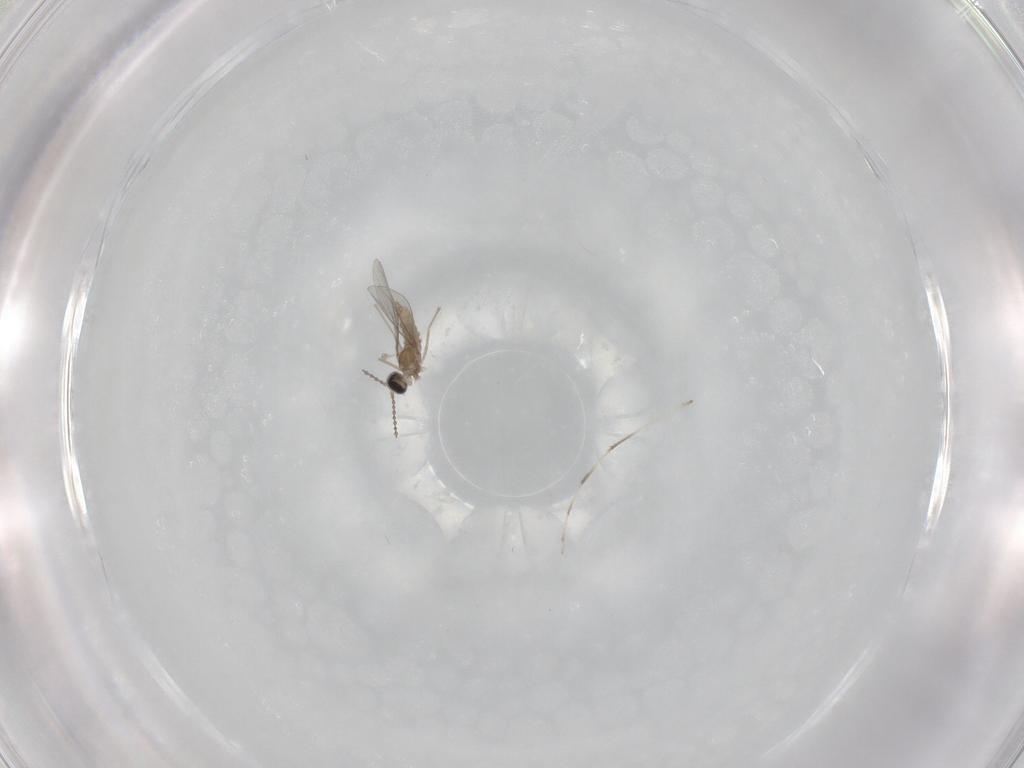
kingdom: Animalia
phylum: Arthropoda
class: Insecta
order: Diptera
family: Cecidomyiidae
